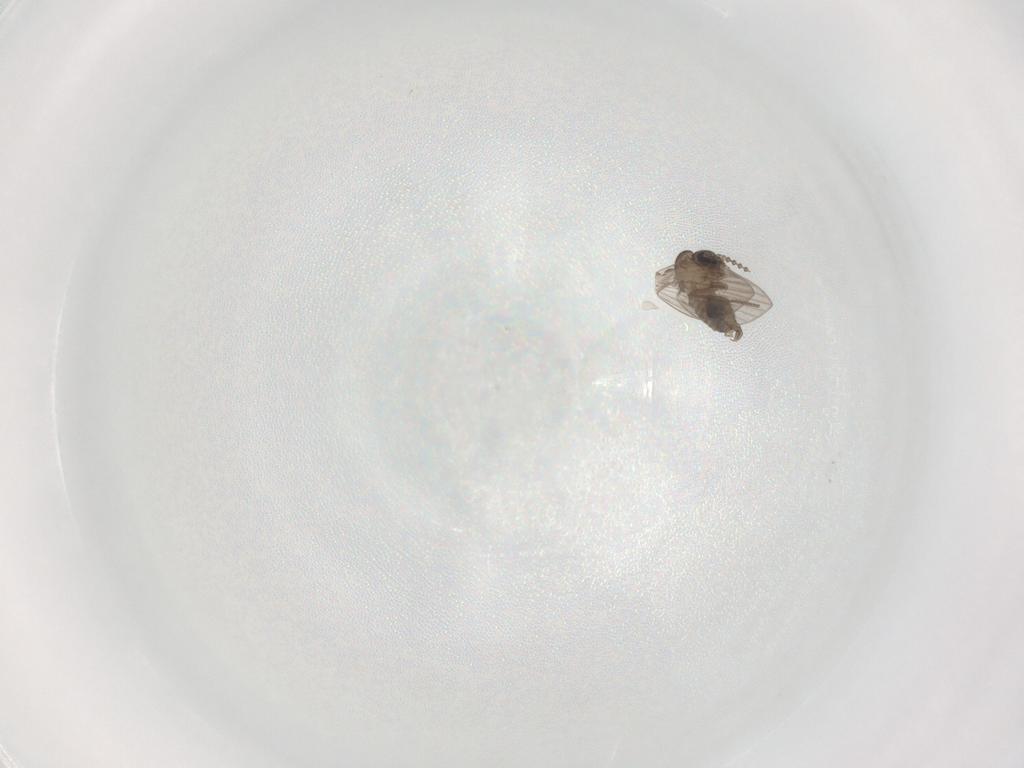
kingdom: Animalia
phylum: Arthropoda
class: Insecta
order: Diptera
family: Psychodidae
